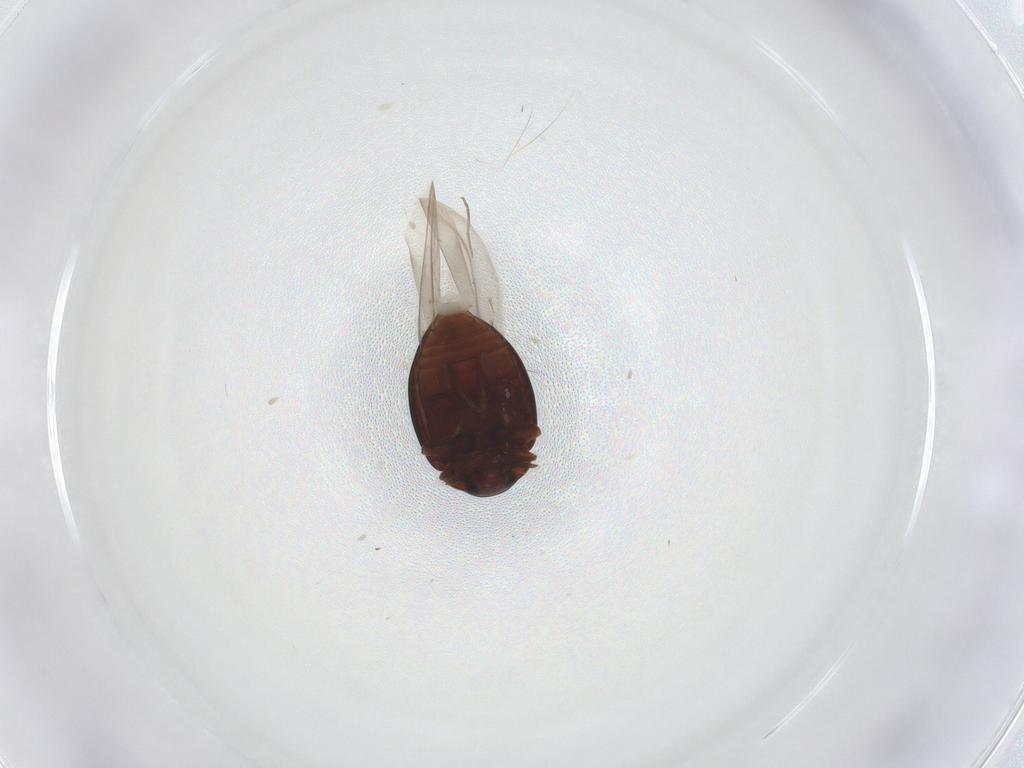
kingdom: Animalia
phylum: Arthropoda
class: Insecta
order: Coleoptera
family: Coccinellidae
